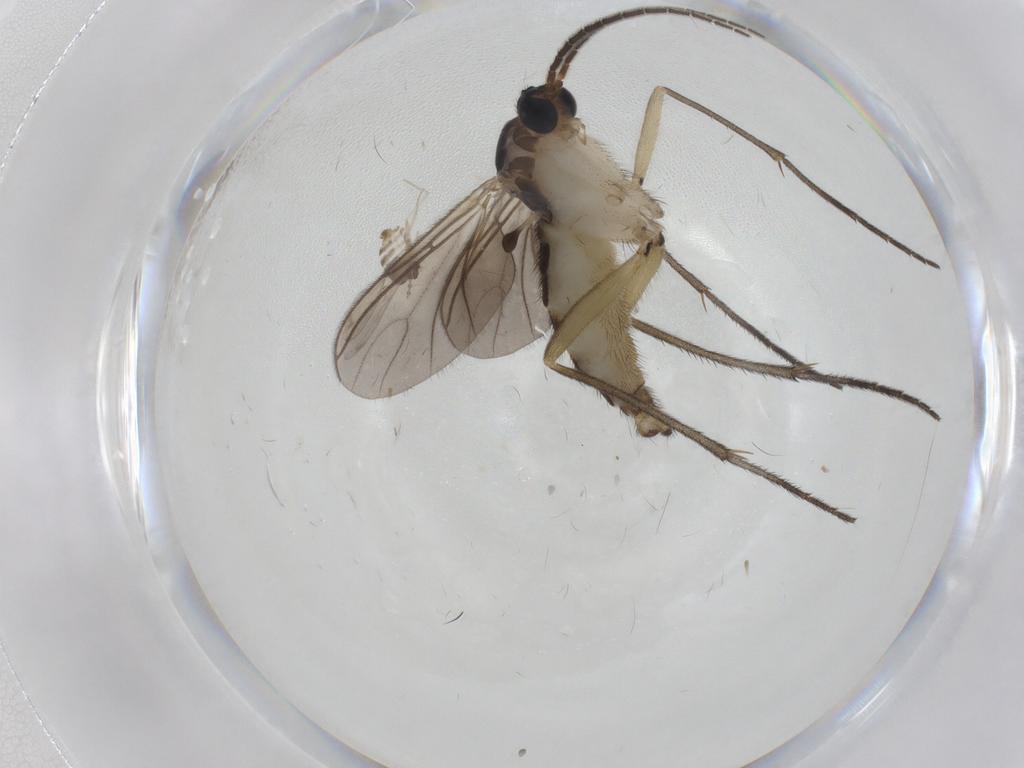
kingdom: Animalia
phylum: Arthropoda
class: Insecta
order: Diptera
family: Sciaridae
